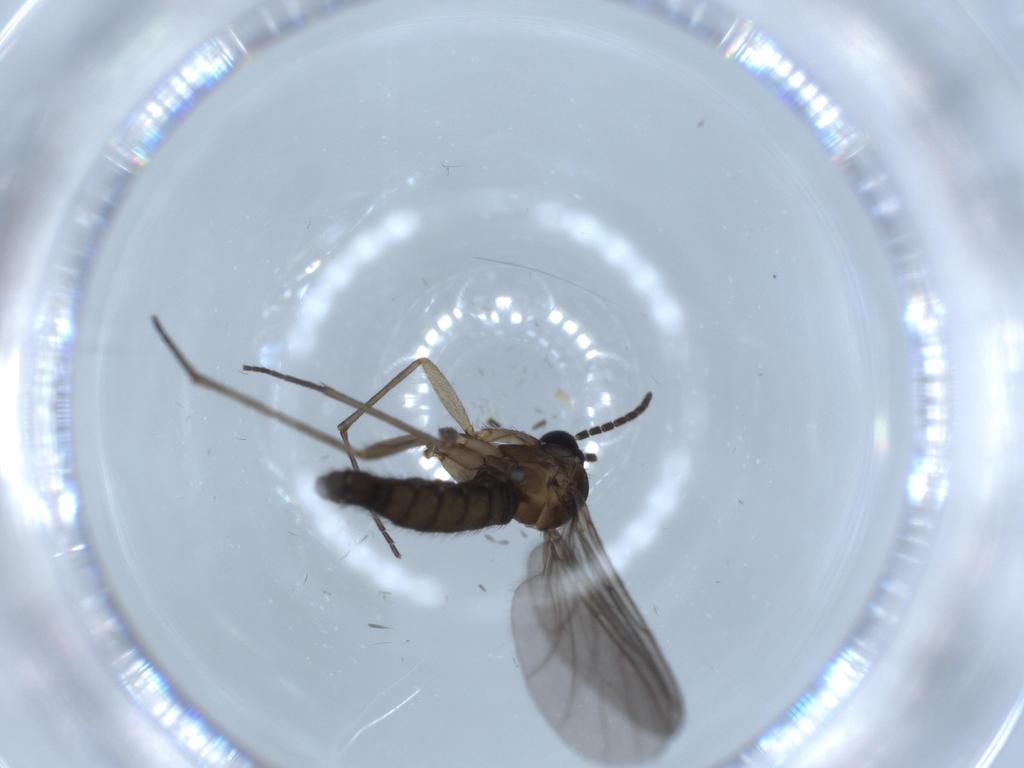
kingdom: Animalia
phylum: Arthropoda
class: Insecta
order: Diptera
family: Sciaridae
